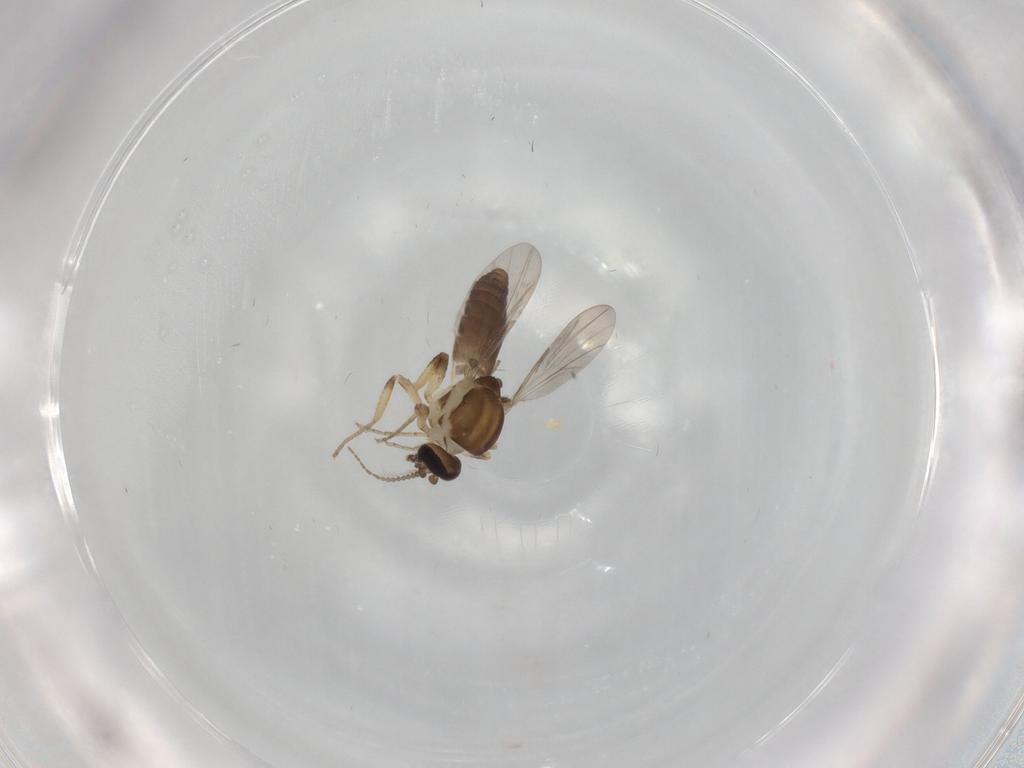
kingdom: Animalia
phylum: Arthropoda
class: Insecta
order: Diptera
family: Ceratopogonidae
